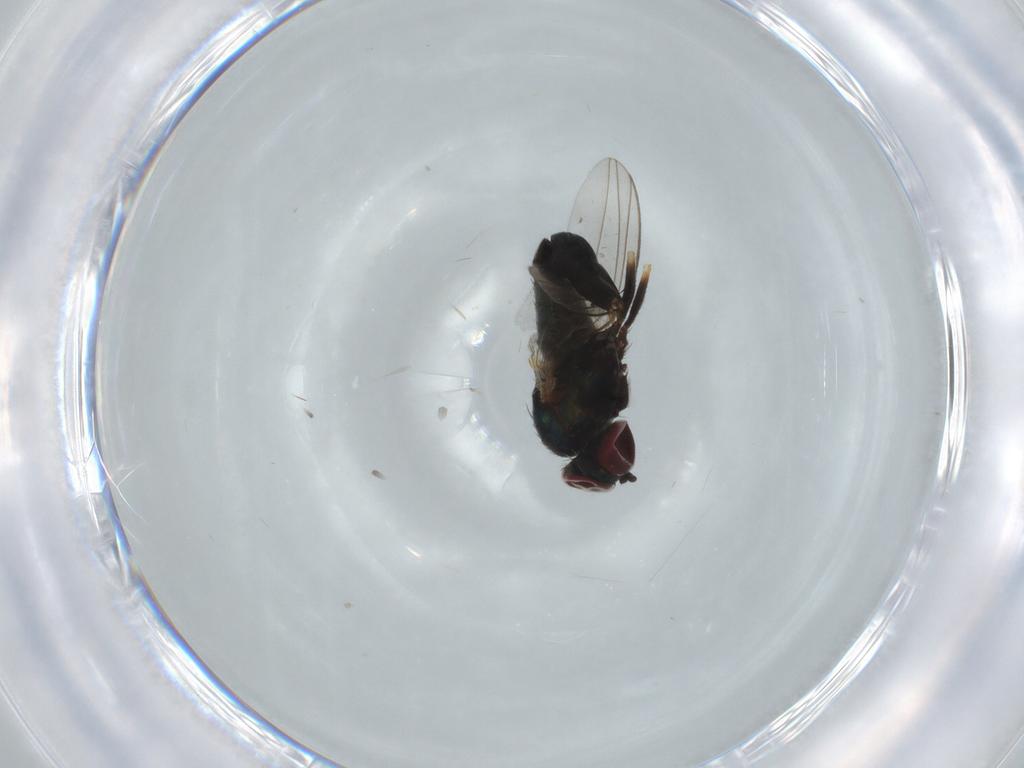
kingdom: Animalia
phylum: Arthropoda
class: Insecta
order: Diptera
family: Dolichopodidae
